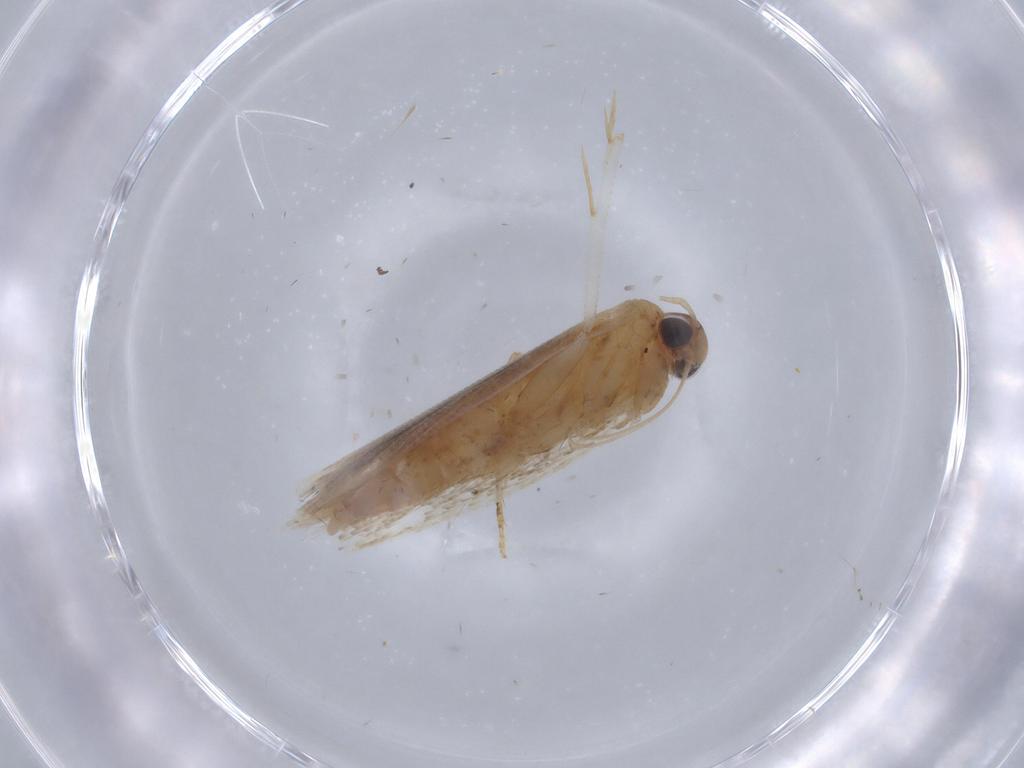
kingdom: Animalia
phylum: Arthropoda
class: Insecta
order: Lepidoptera
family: Gelechiidae
